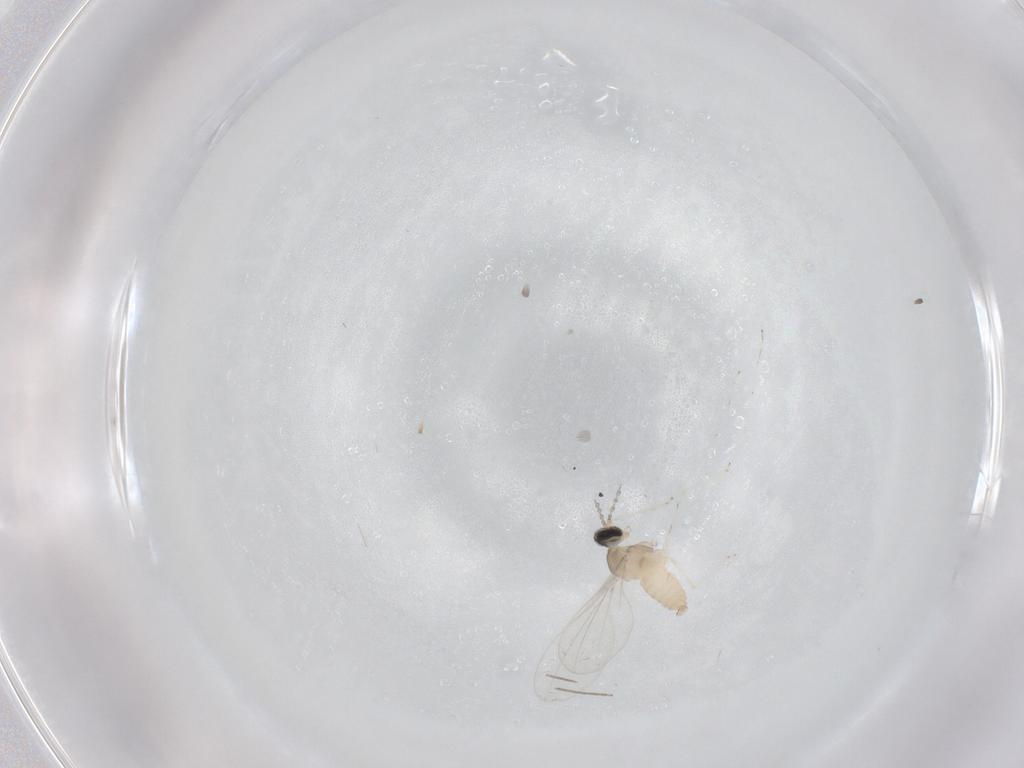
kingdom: Animalia
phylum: Arthropoda
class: Insecta
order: Diptera
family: Cecidomyiidae
